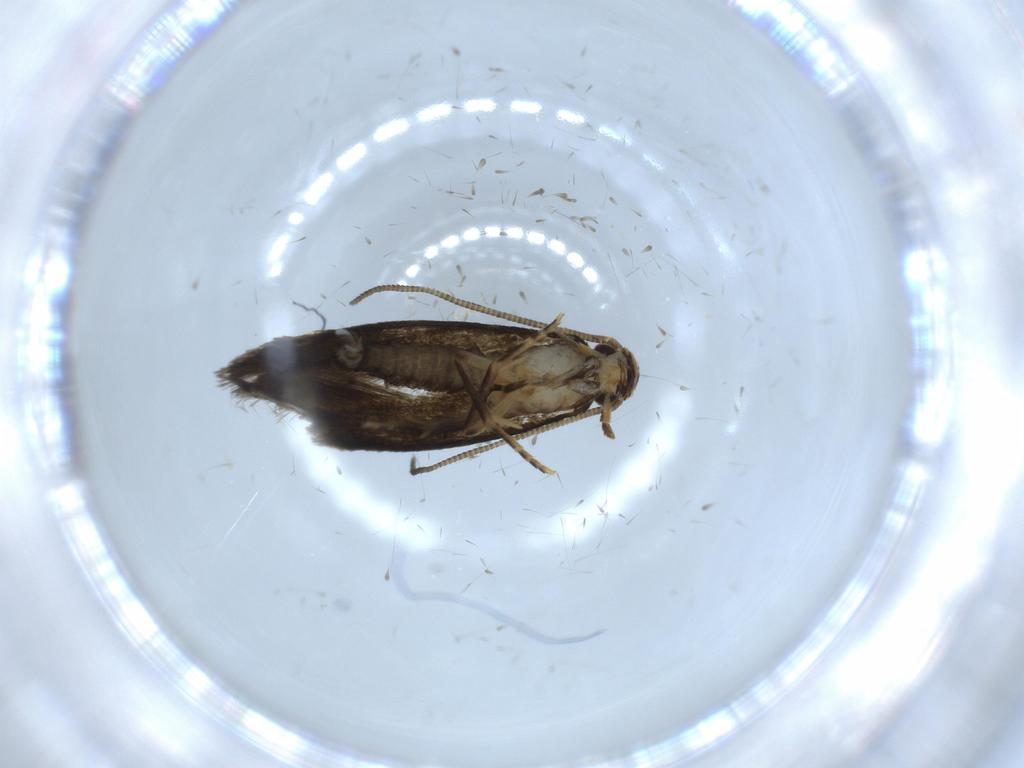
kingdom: Animalia
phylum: Arthropoda
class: Insecta
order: Lepidoptera
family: Tineidae
